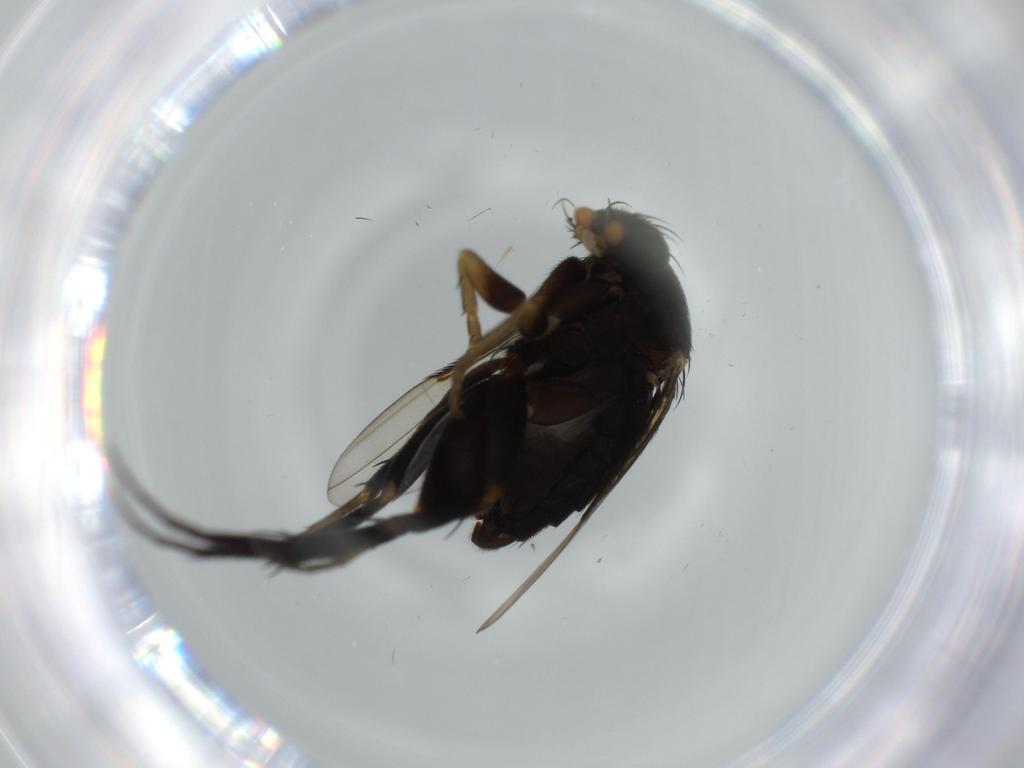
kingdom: Animalia
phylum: Arthropoda
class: Insecta
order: Diptera
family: Phoridae
